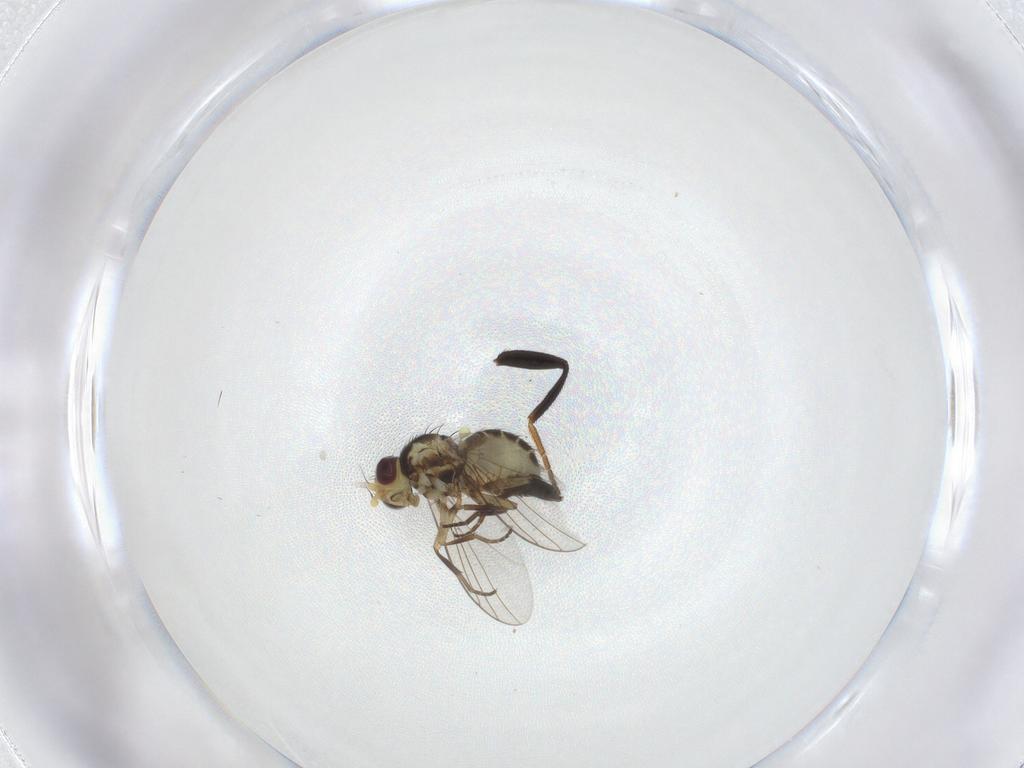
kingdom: Animalia
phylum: Arthropoda
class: Insecta
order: Diptera
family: Agromyzidae
